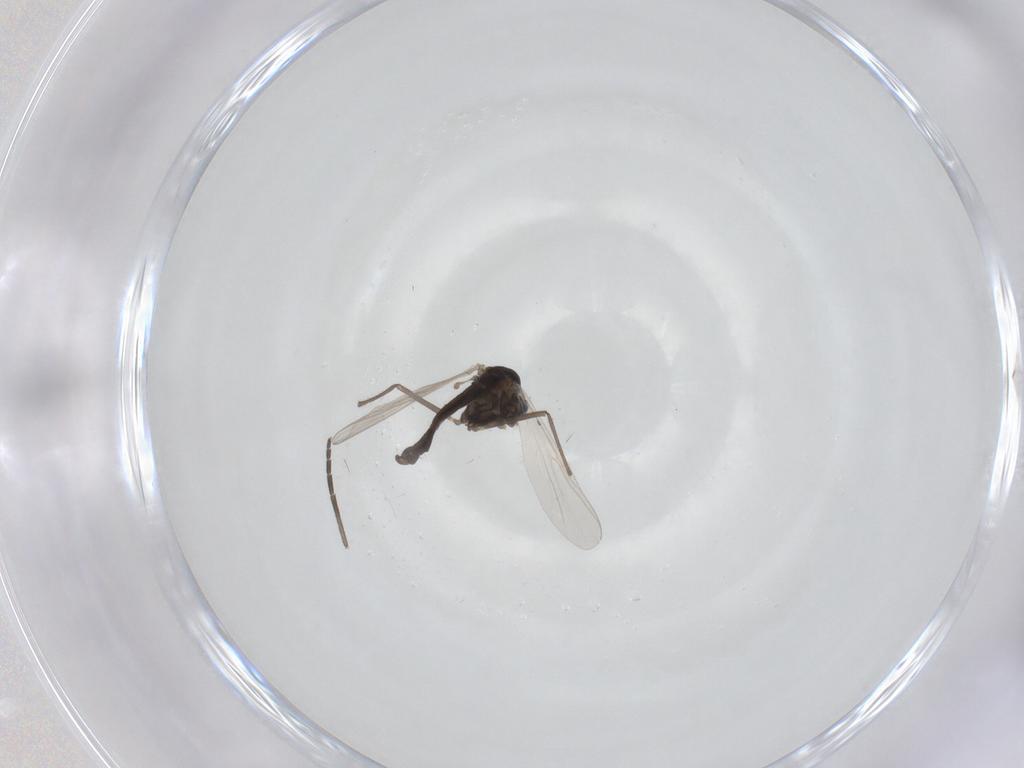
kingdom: Animalia
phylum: Arthropoda
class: Insecta
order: Diptera
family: Chironomidae
